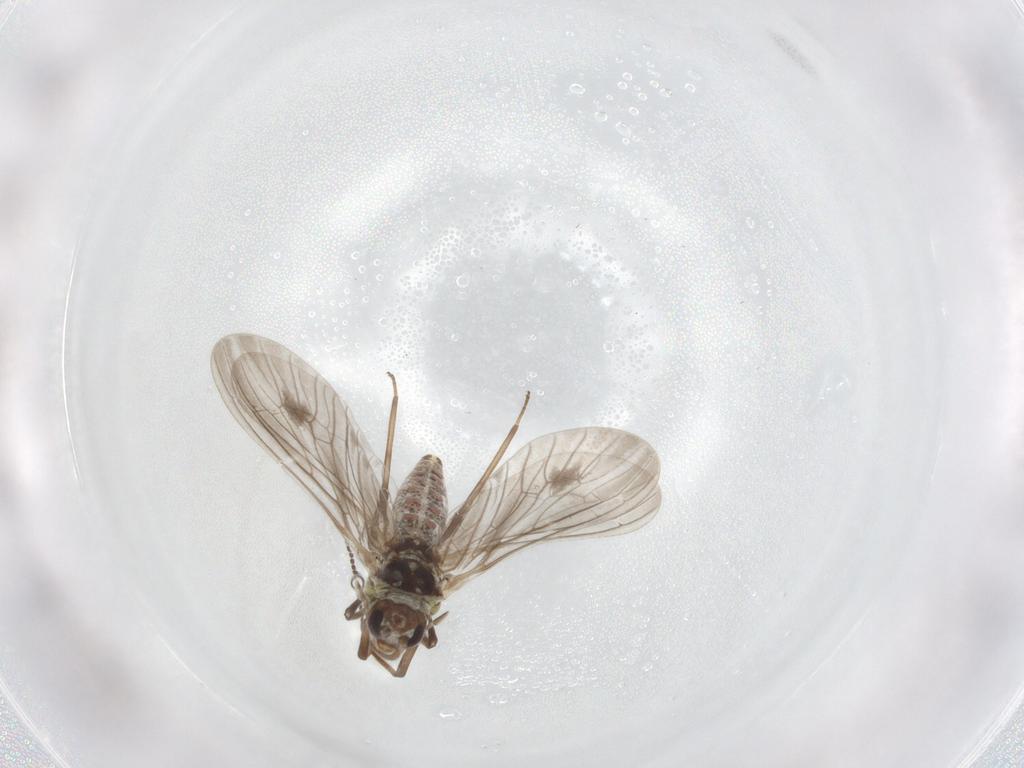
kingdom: Animalia
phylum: Arthropoda
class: Insecta
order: Neuroptera
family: Coniopterygidae
